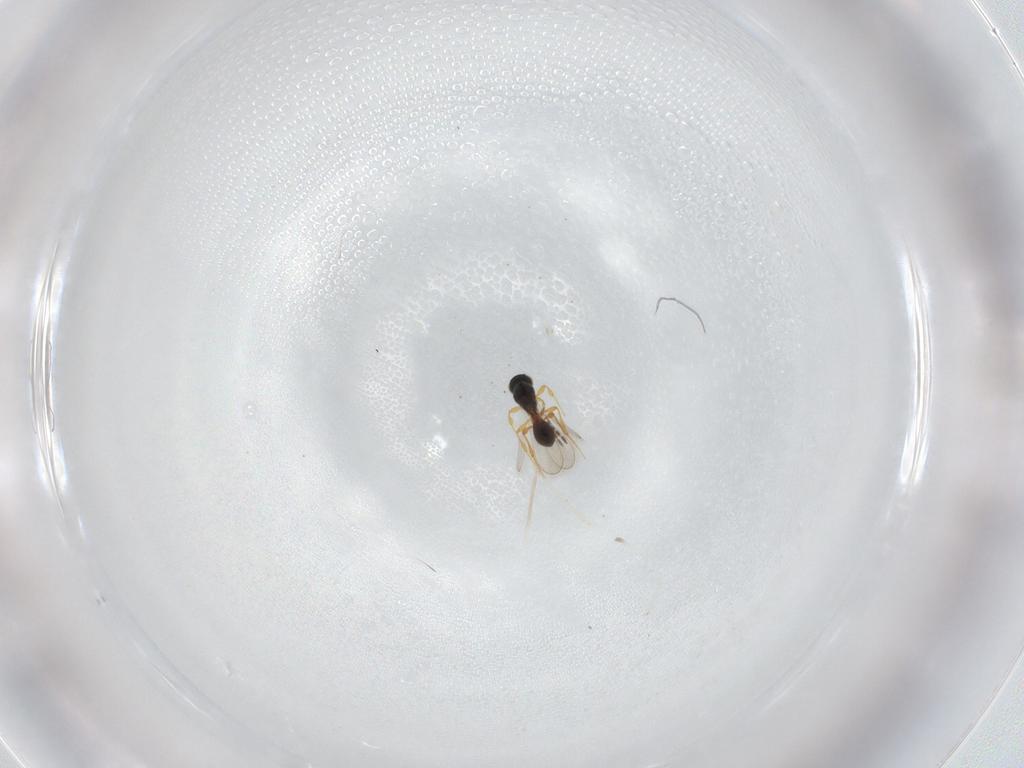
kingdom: Animalia
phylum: Arthropoda
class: Insecta
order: Hymenoptera
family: Platygastridae
